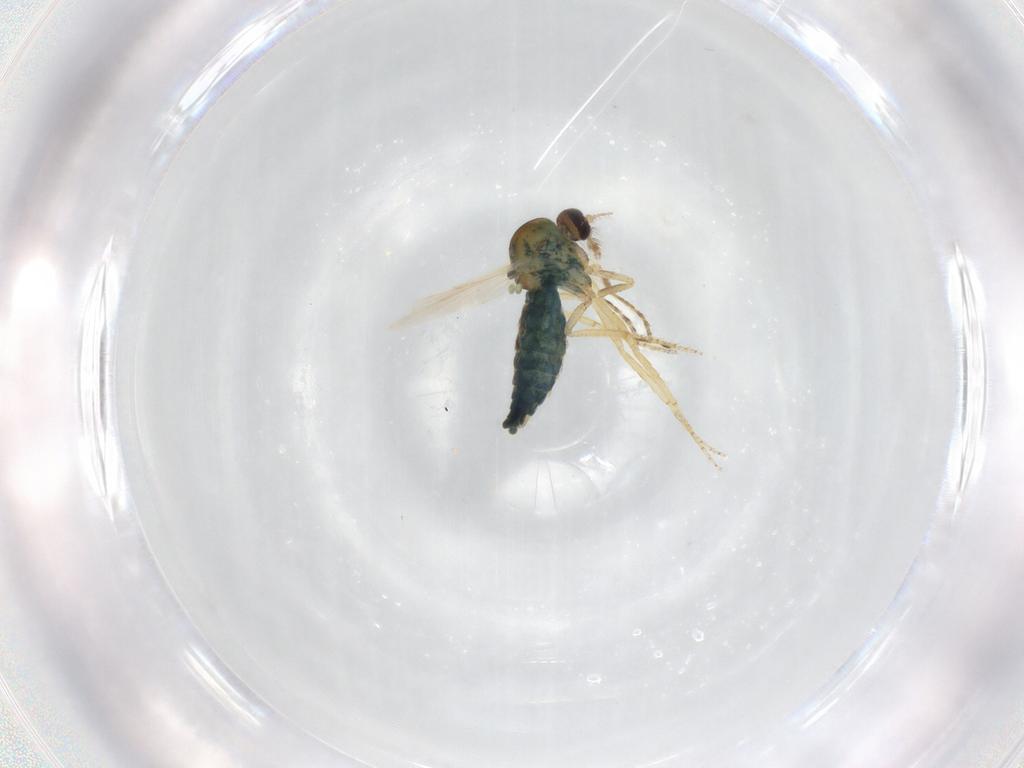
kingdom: Animalia
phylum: Arthropoda
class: Insecta
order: Diptera
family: Ceratopogonidae
